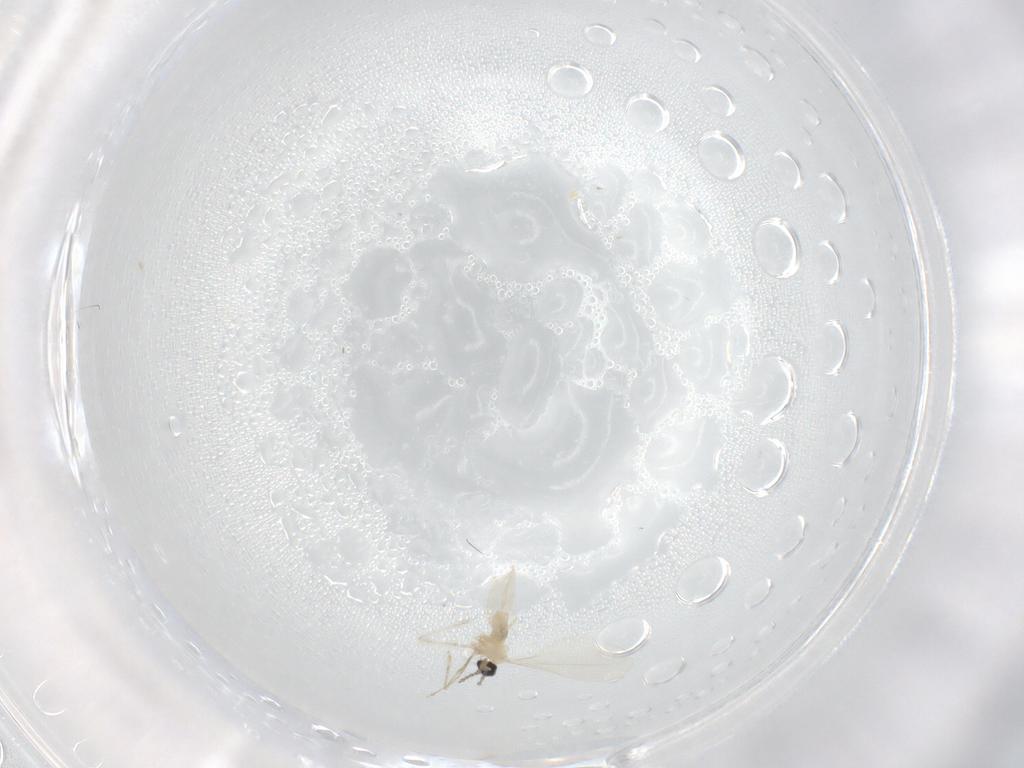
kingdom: Animalia
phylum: Arthropoda
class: Insecta
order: Diptera
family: Cecidomyiidae
